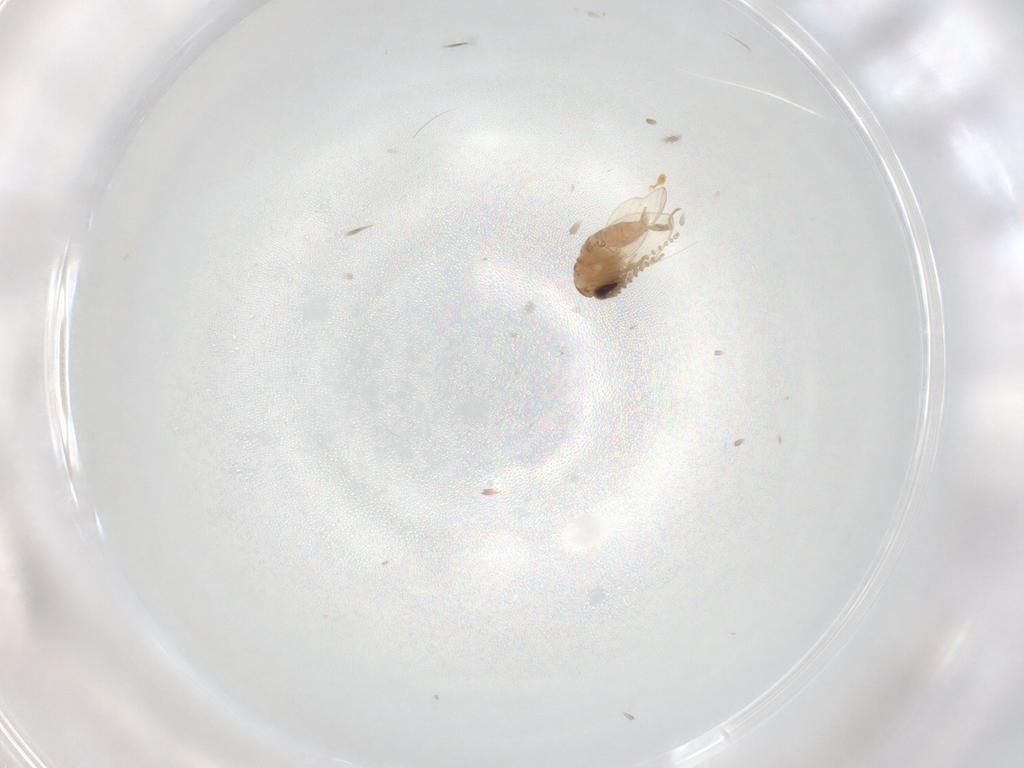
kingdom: Animalia
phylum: Arthropoda
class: Insecta
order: Diptera
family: Psychodidae
